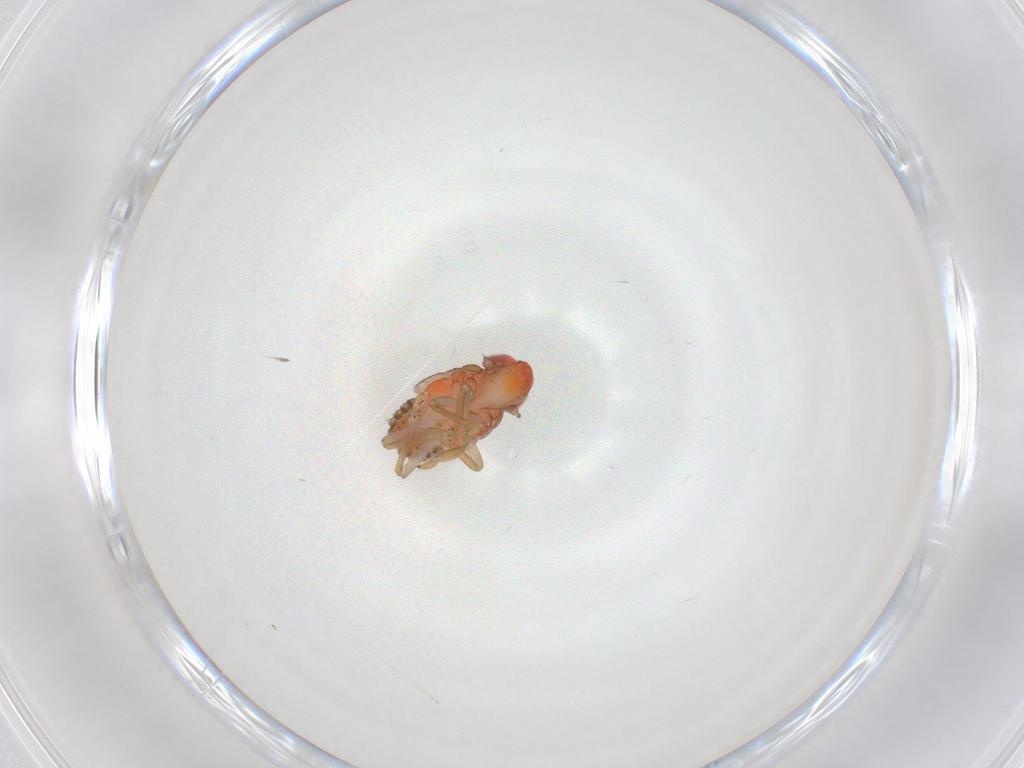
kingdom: Animalia
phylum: Arthropoda
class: Insecta
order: Diptera
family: Cecidomyiidae
